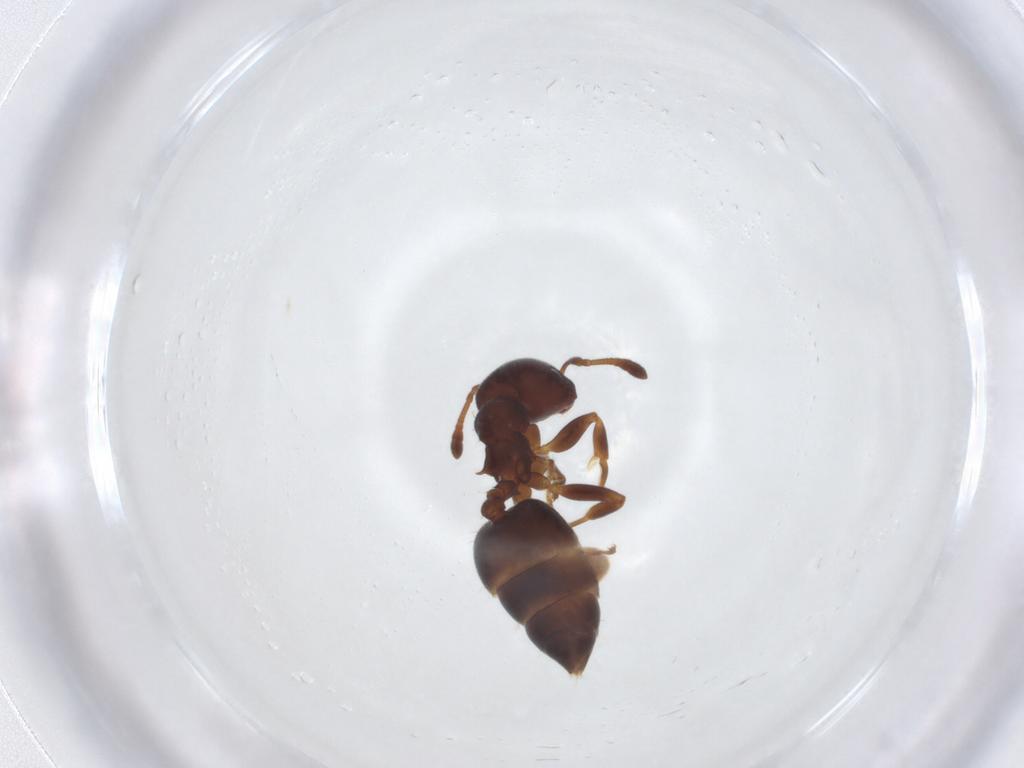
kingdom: Animalia
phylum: Arthropoda
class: Insecta
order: Hymenoptera
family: Formicidae
